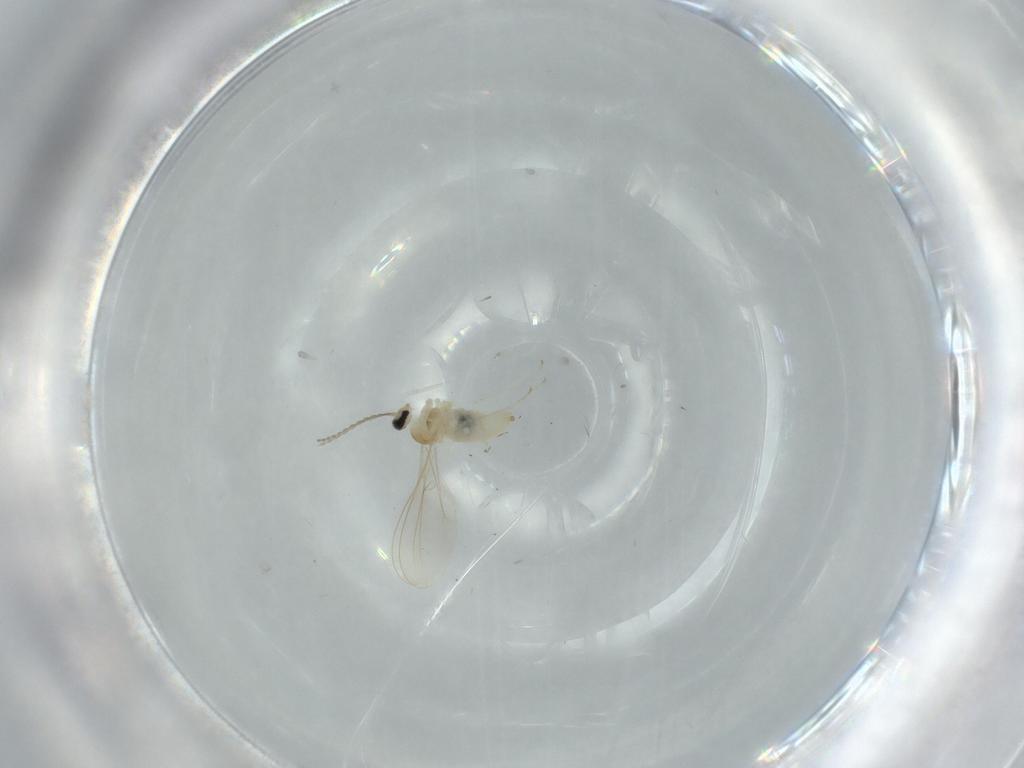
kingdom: Animalia
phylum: Arthropoda
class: Insecta
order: Diptera
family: Cecidomyiidae
